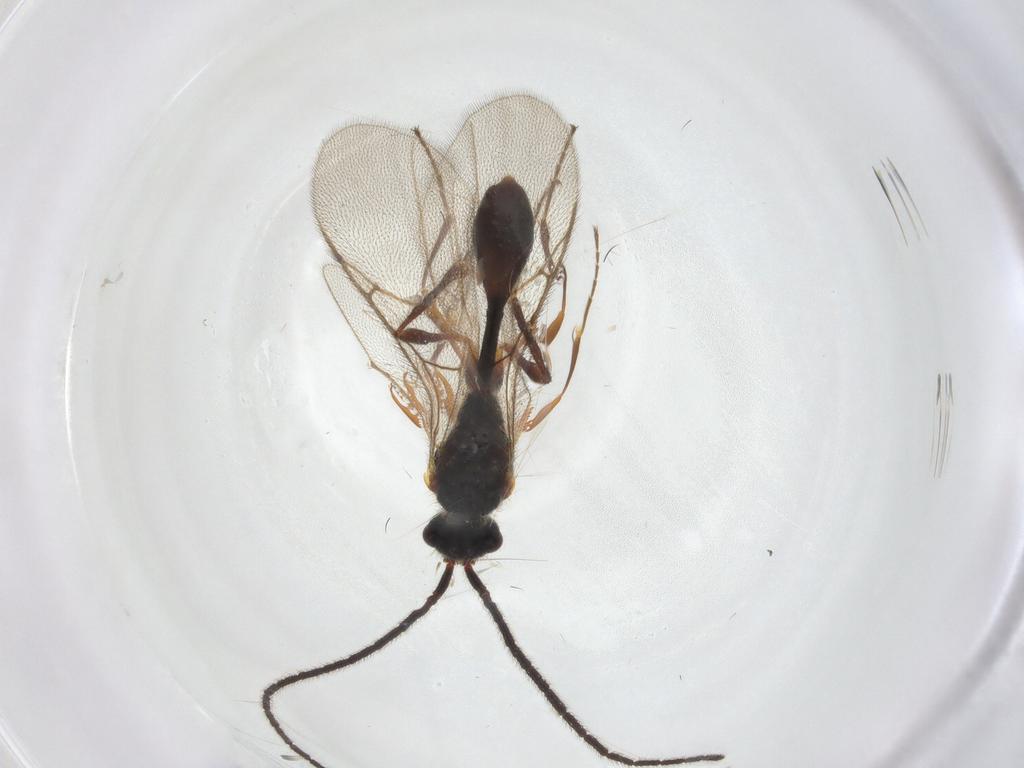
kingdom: Animalia
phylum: Arthropoda
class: Insecta
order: Hymenoptera
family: Diapriidae
